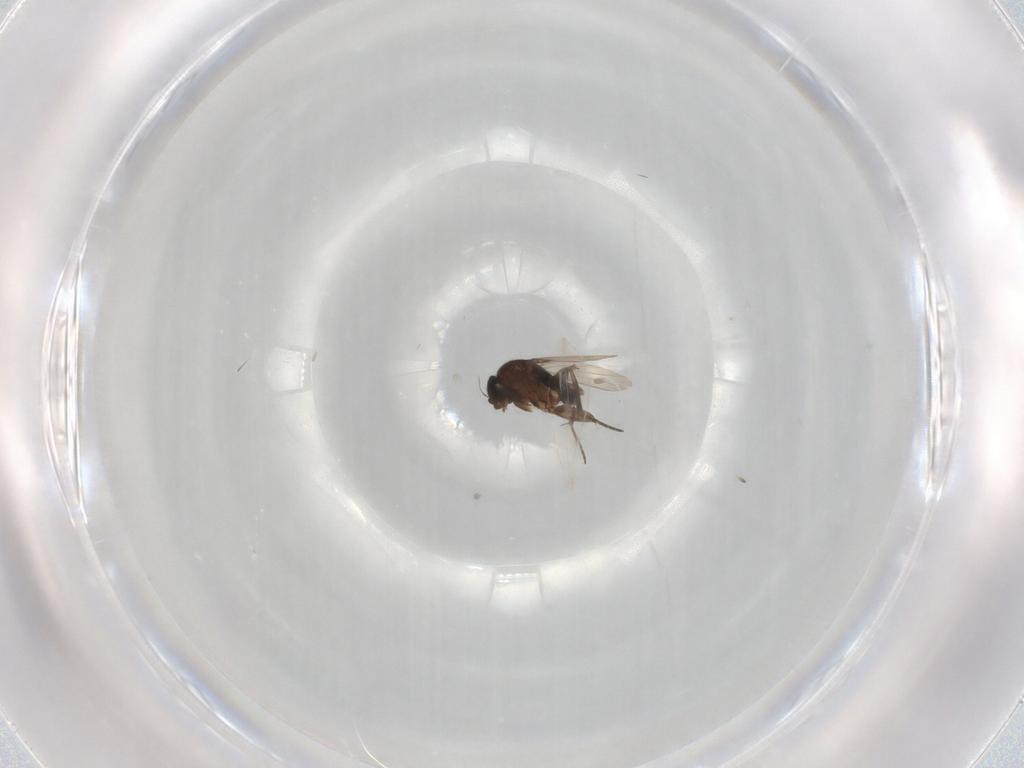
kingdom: Animalia
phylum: Arthropoda
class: Insecta
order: Diptera
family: Phoridae
